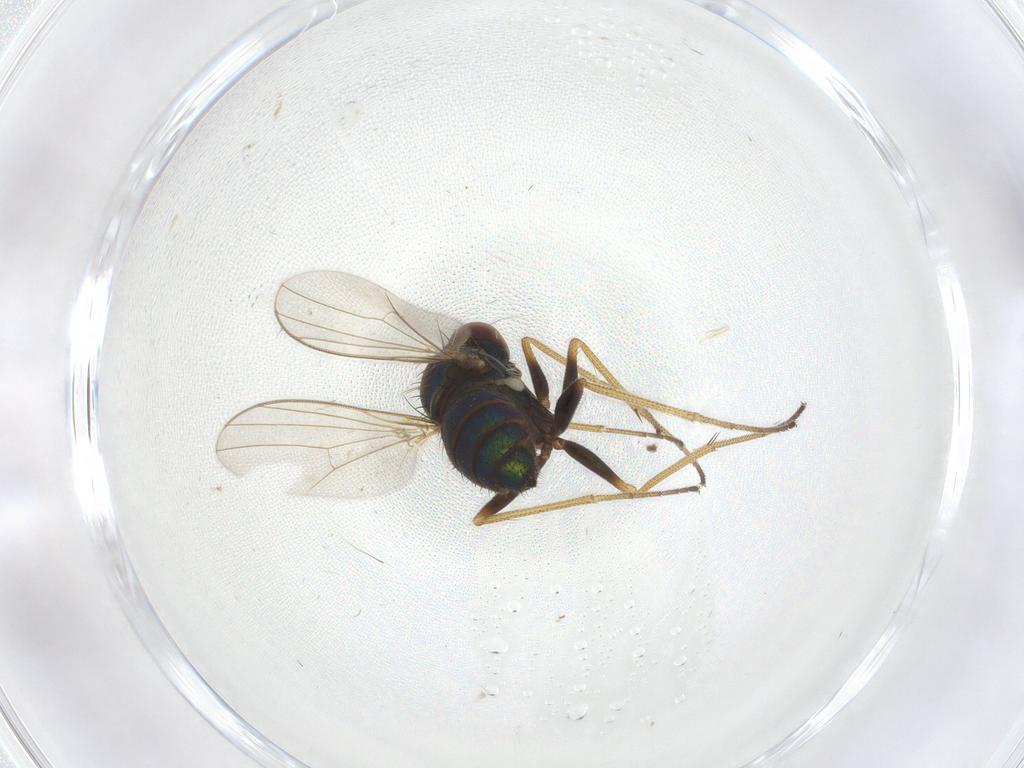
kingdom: Animalia
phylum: Arthropoda
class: Insecta
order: Diptera
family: Dolichopodidae
